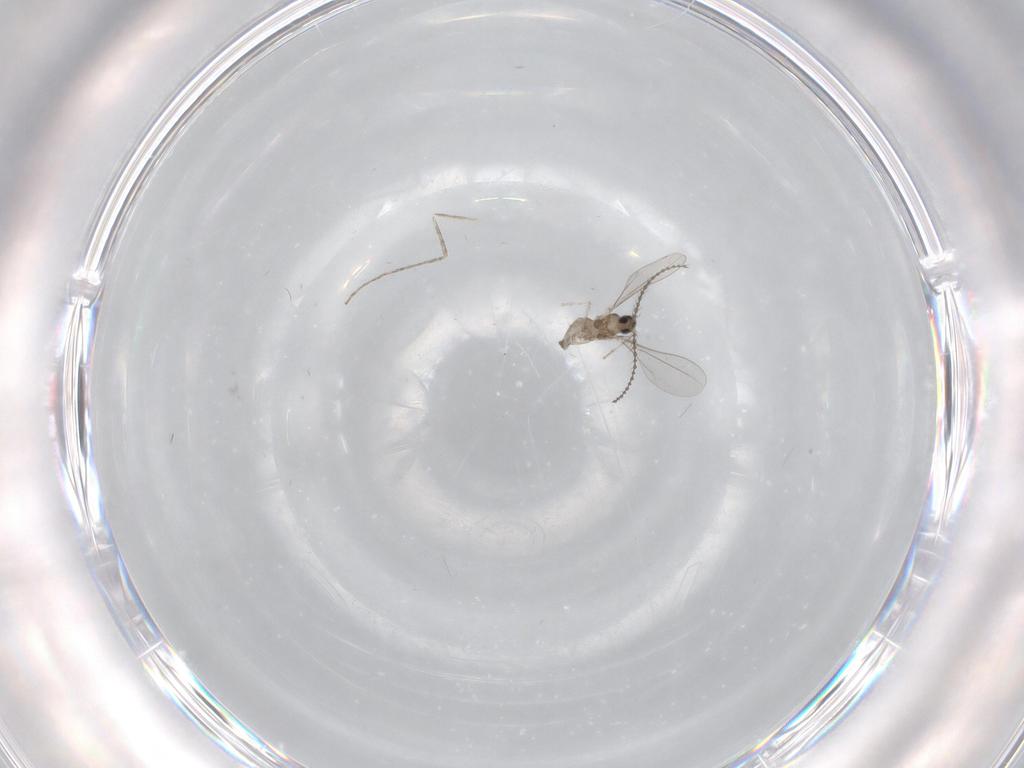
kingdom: Animalia
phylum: Arthropoda
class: Insecta
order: Diptera
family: Cecidomyiidae
